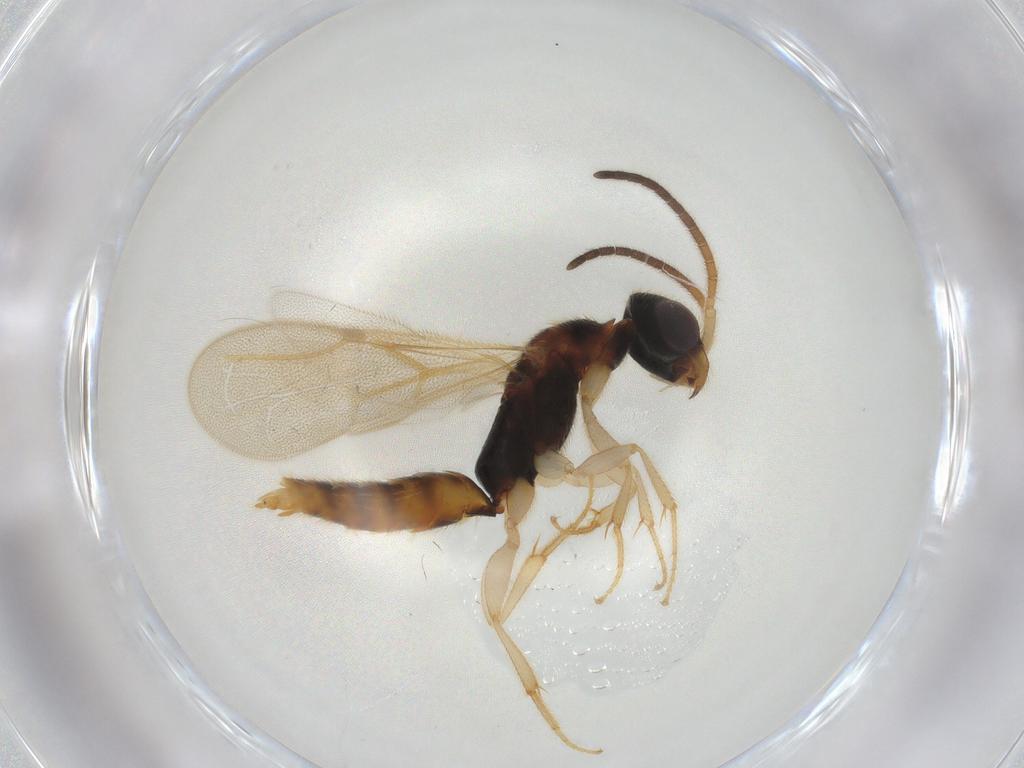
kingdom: Animalia
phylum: Arthropoda
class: Insecta
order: Hymenoptera
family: Bethylidae
